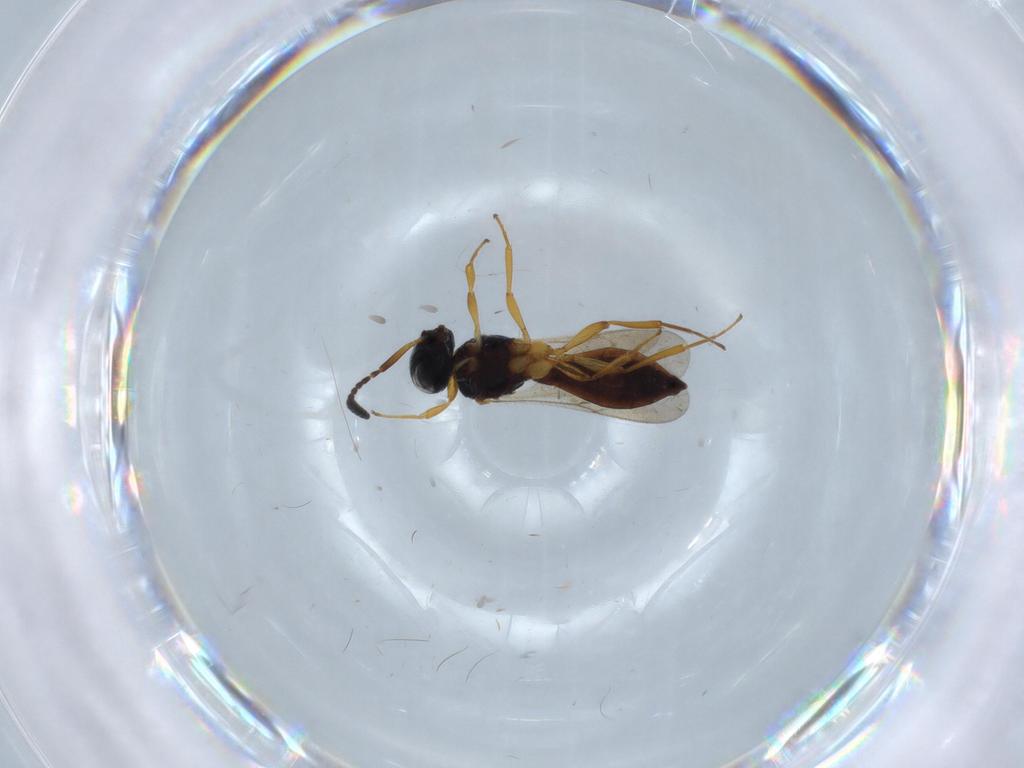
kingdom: Animalia
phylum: Arthropoda
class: Insecta
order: Hymenoptera
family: Scelionidae
